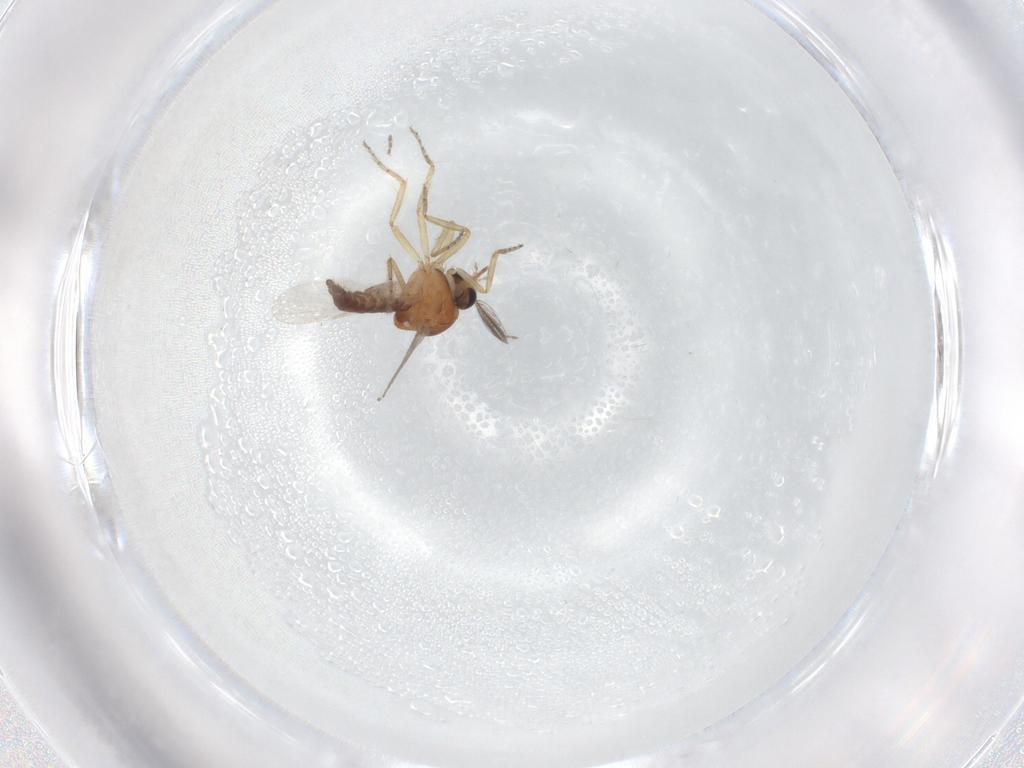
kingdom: Animalia
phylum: Arthropoda
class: Insecta
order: Diptera
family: Ceratopogonidae
